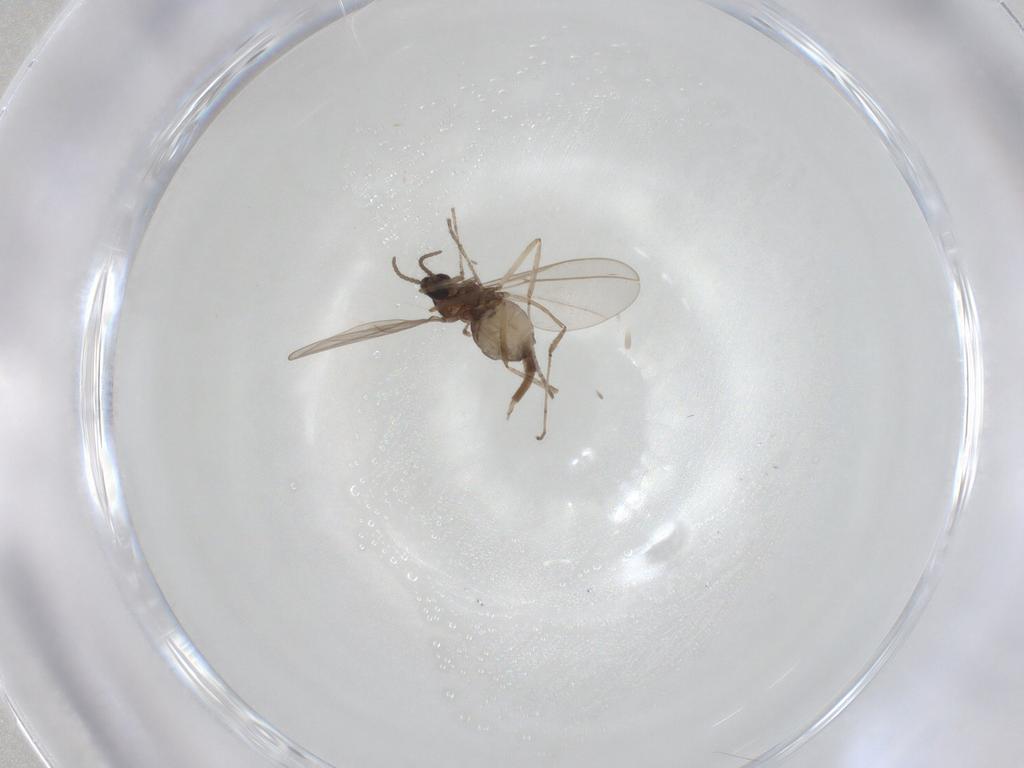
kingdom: Animalia
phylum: Arthropoda
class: Insecta
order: Diptera
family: Cecidomyiidae
